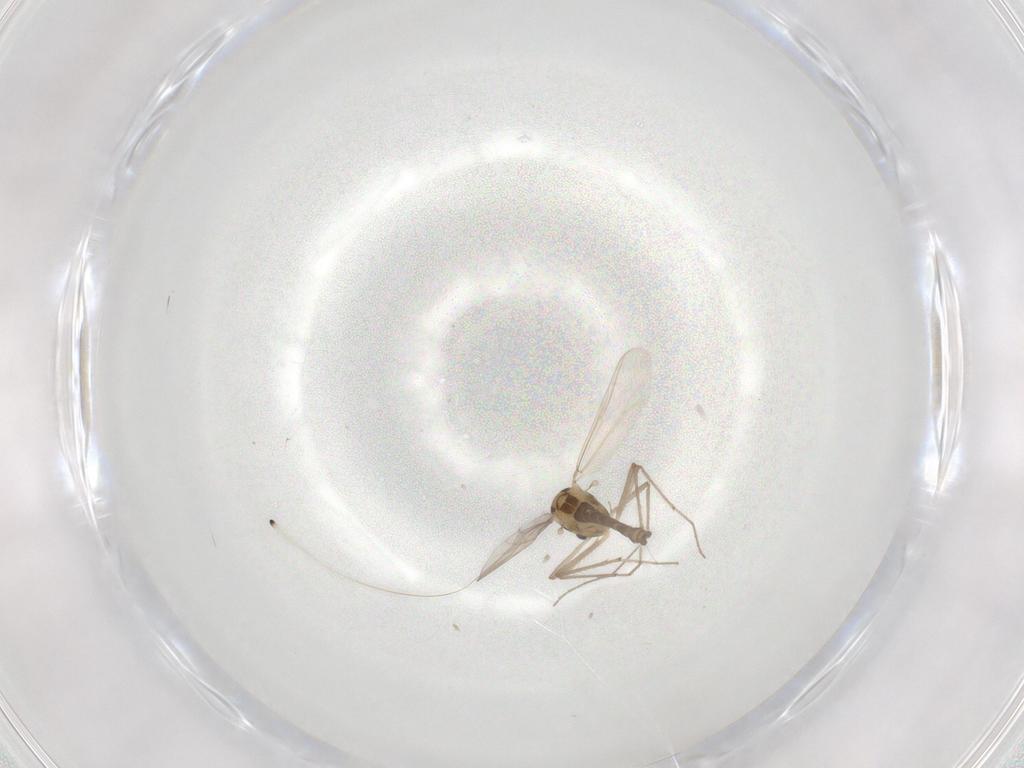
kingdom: Animalia
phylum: Arthropoda
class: Insecta
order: Diptera
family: Chironomidae
